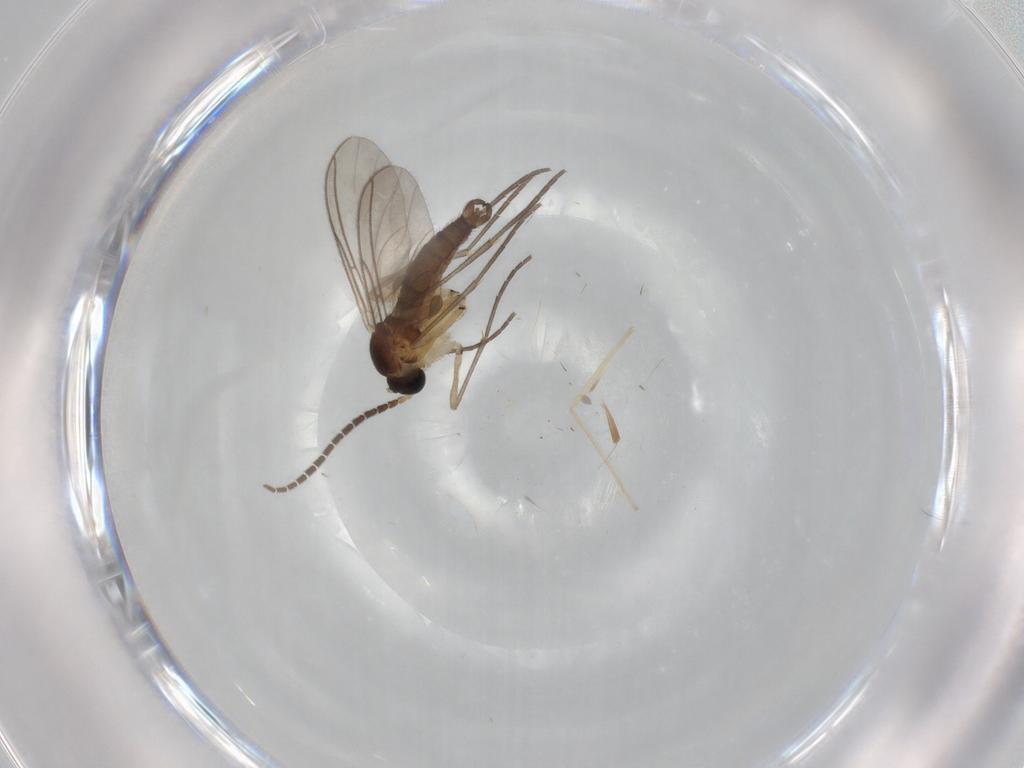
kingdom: Animalia
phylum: Arthropoda
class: Insecta
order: Diptera
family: Chironomidae
